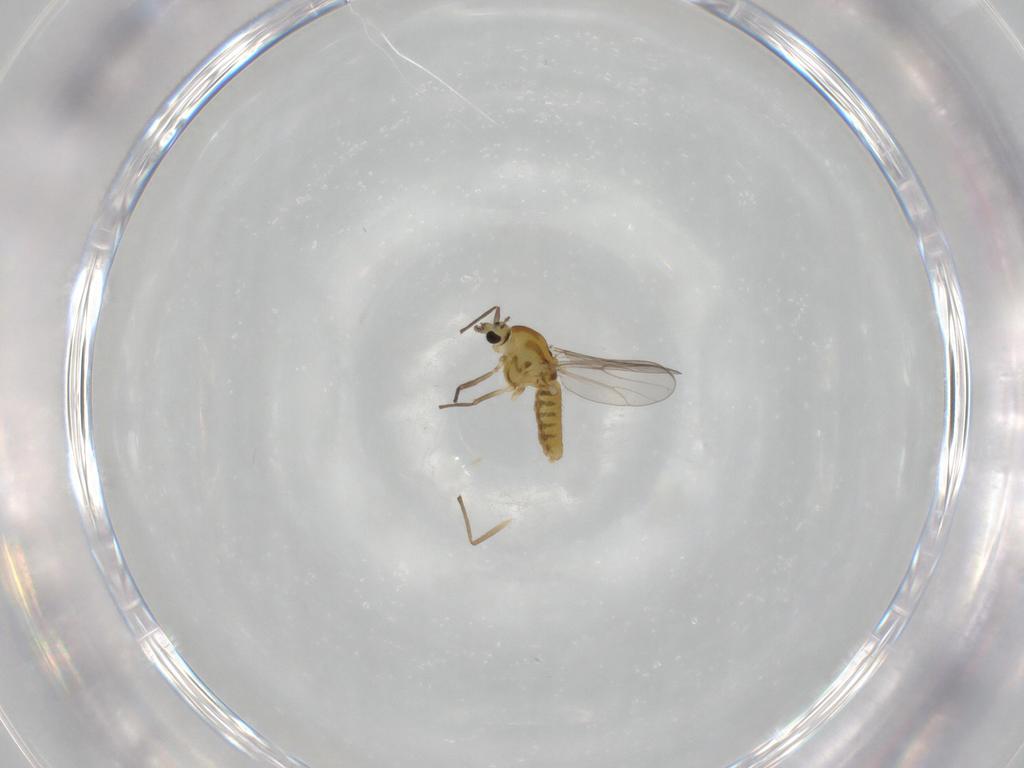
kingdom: Animalia
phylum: Arthropoda
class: Insecta
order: Diptera
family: Chironomidae
